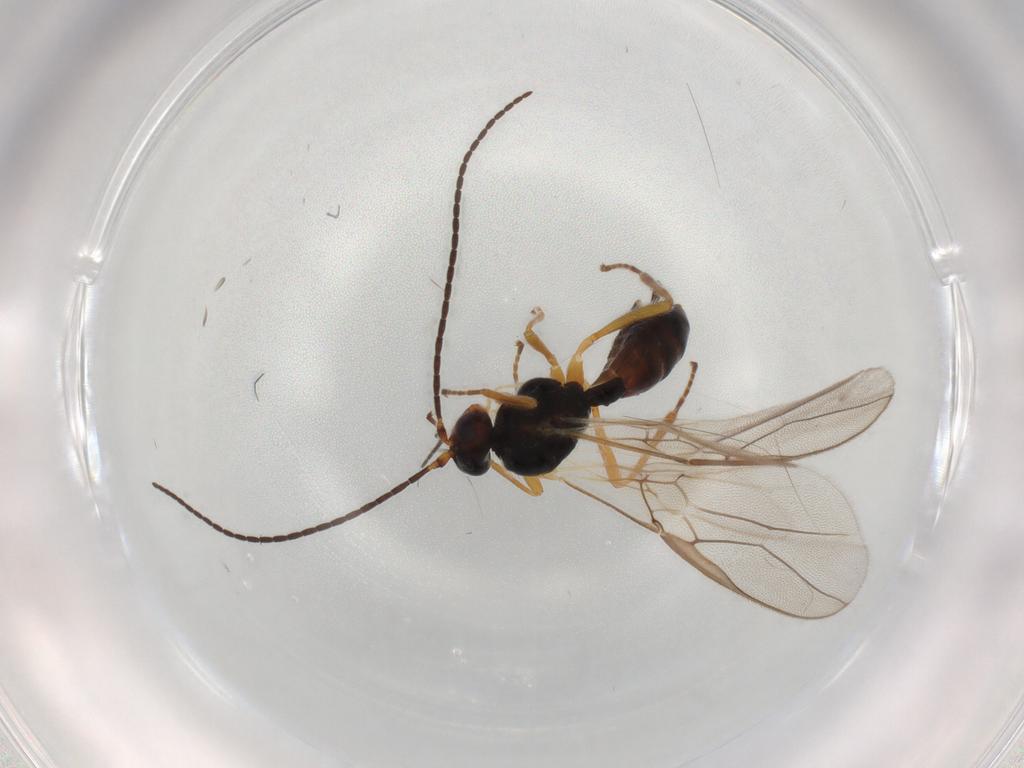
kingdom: Animalia
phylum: Arthropoda
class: Insecta
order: Hymenoptera
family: Braconidae
